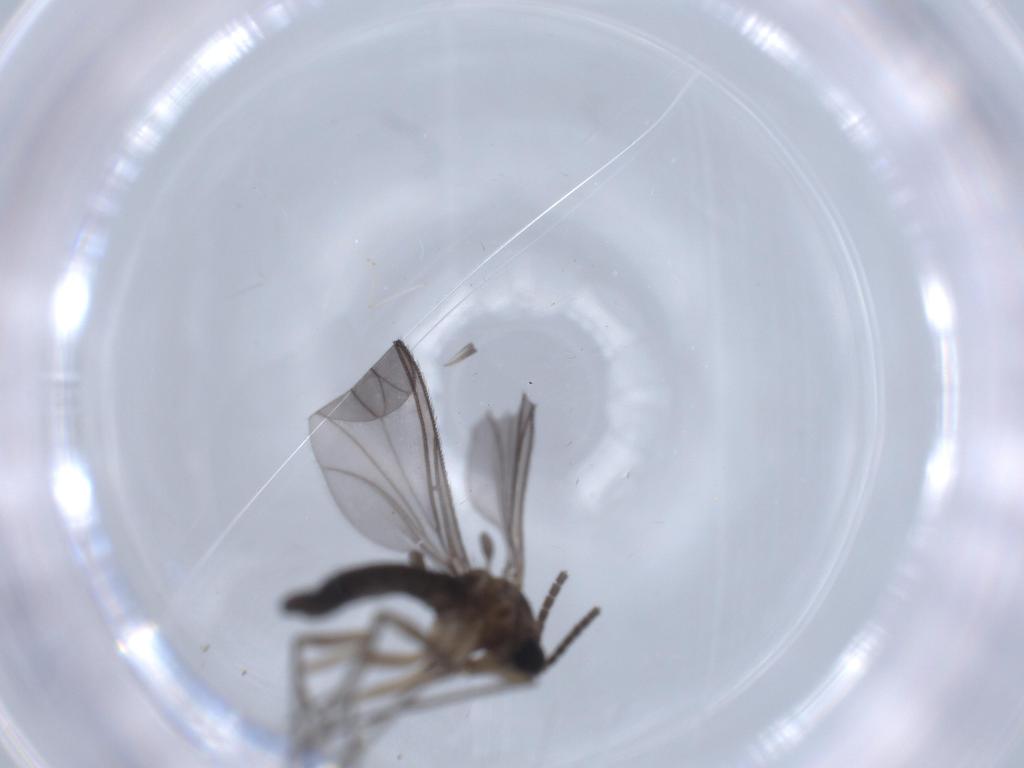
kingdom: Animalia
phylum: Arthropoda
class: Insecta
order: Diptera
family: Sciaridae
